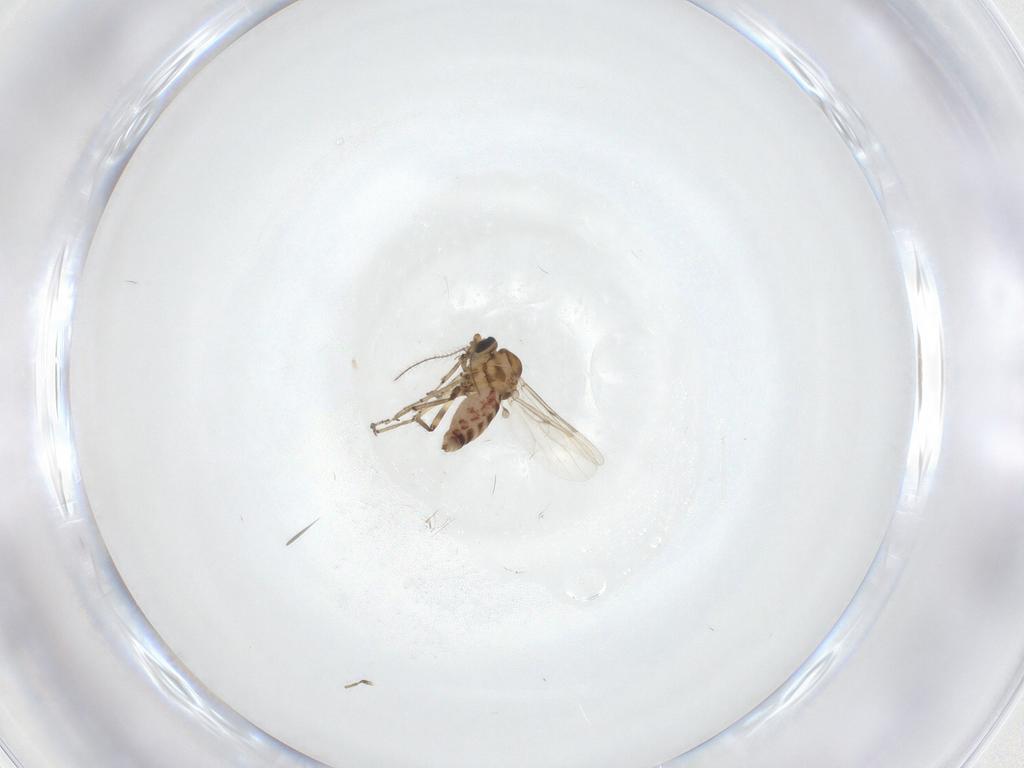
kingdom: Animalia
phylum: Arthropoda
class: Insecta
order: Diptera
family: Ceratopogonidae
